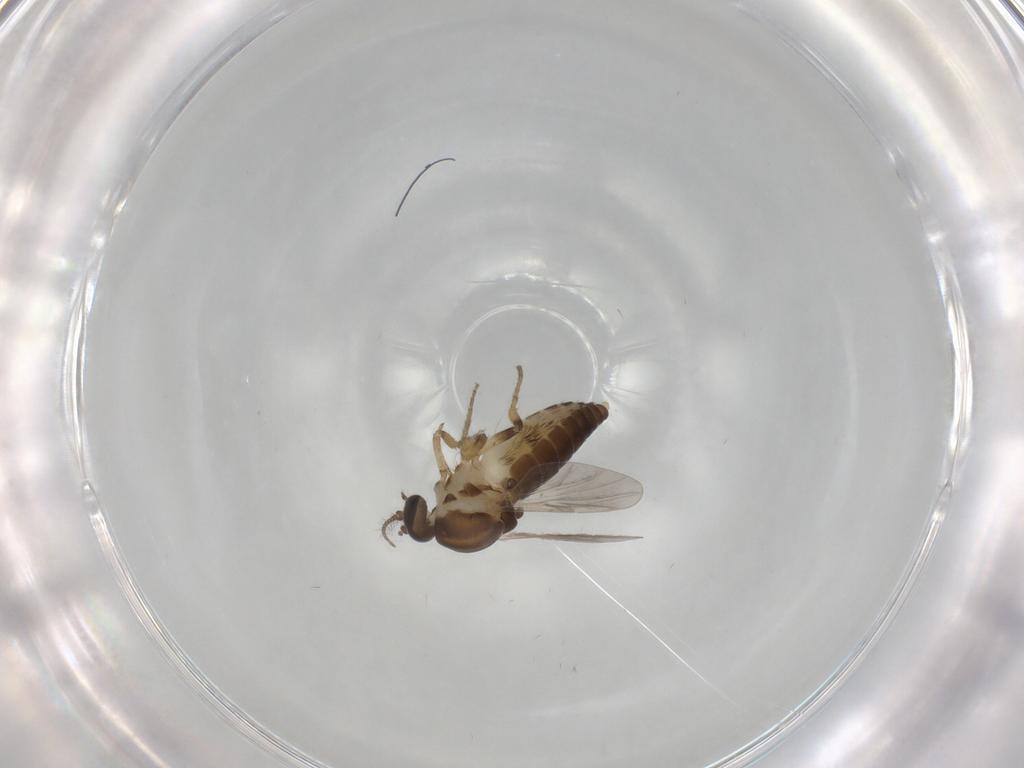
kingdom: Animalia
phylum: Arthropoda
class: Insecta
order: Diptera
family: Ceratopogonidae
